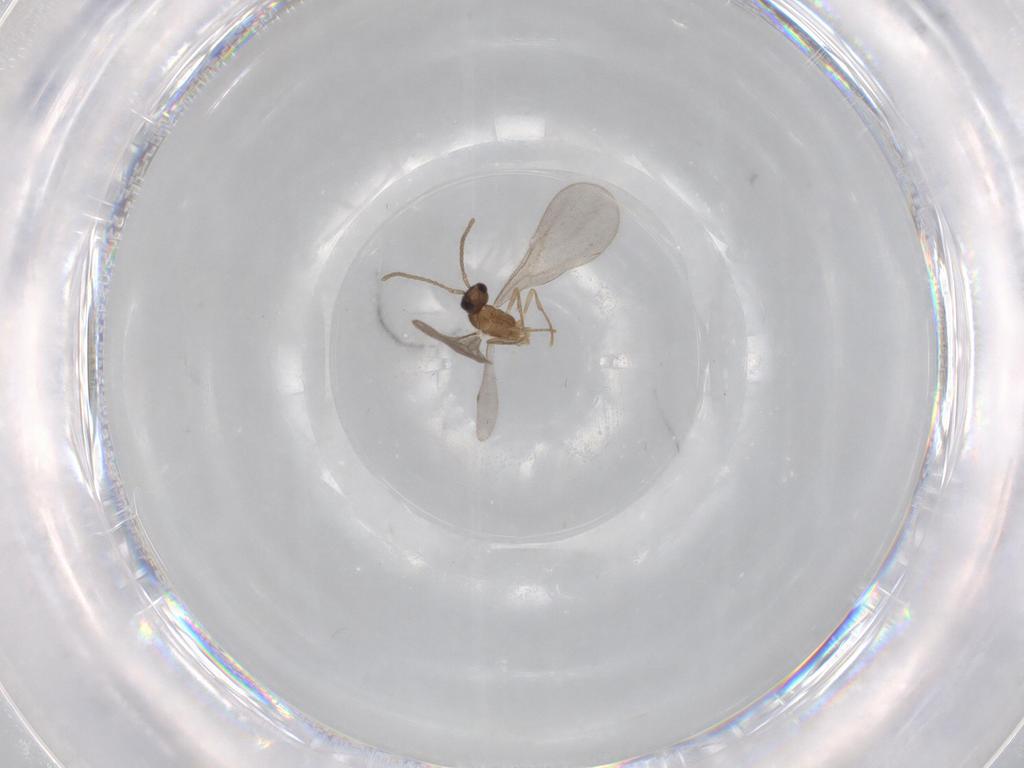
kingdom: Animalia
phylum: Arthropoda
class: Insecta
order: Hymenoptera
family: Formicidae
